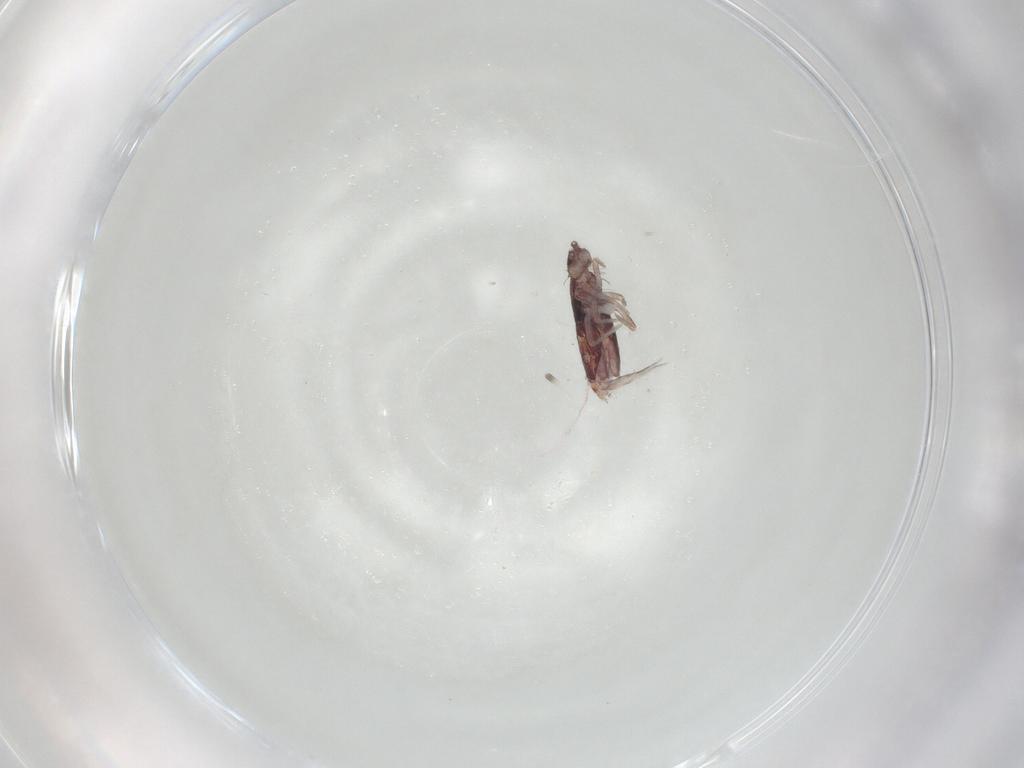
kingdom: Animalia
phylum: Arthropoda
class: Collembola
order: Entomobryomorpha
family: Entomobryidae
